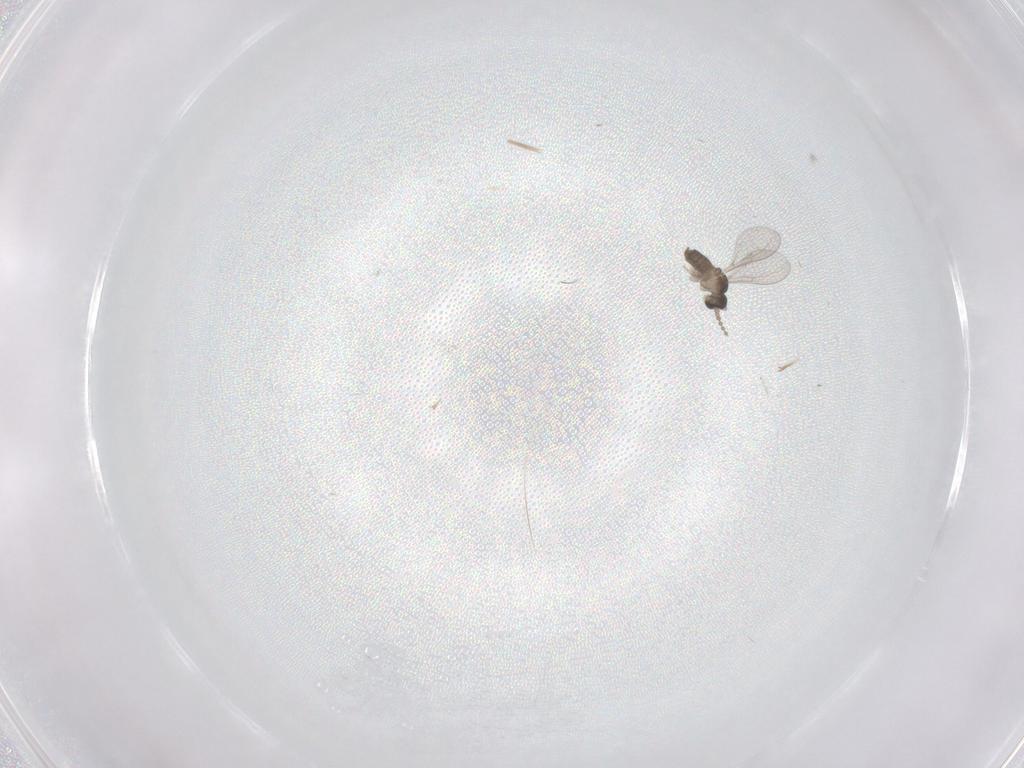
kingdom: Animalia
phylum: Arthropoda
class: Insecta
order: Diptera
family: Cecidomyiidae
